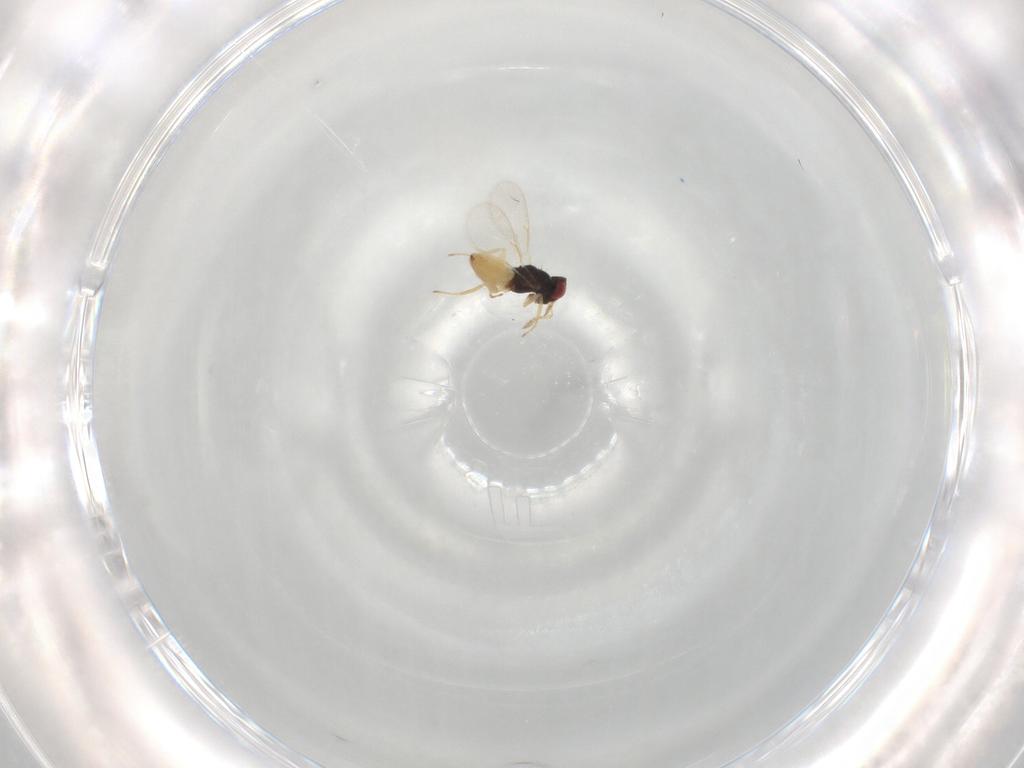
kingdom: Animalia
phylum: Arthropoda
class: Insecta
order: Hymenoptera
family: Eulophidae
